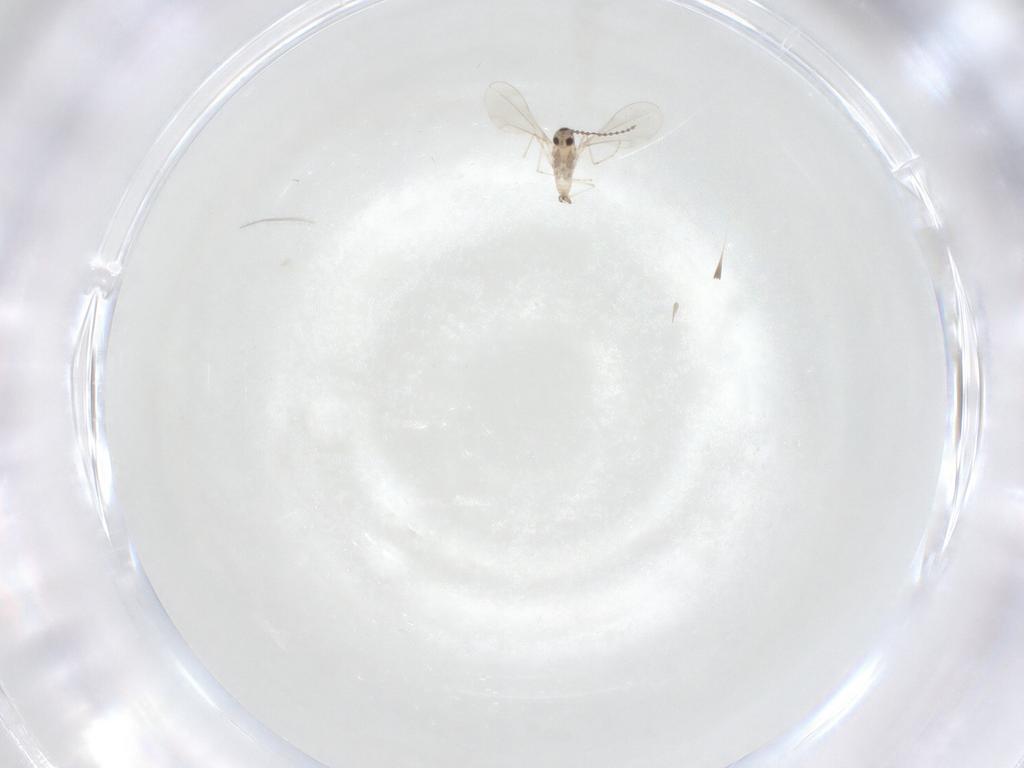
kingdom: Animalia
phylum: Arthropoda
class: Insecta
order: Diptera
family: Cecidomyiidae
